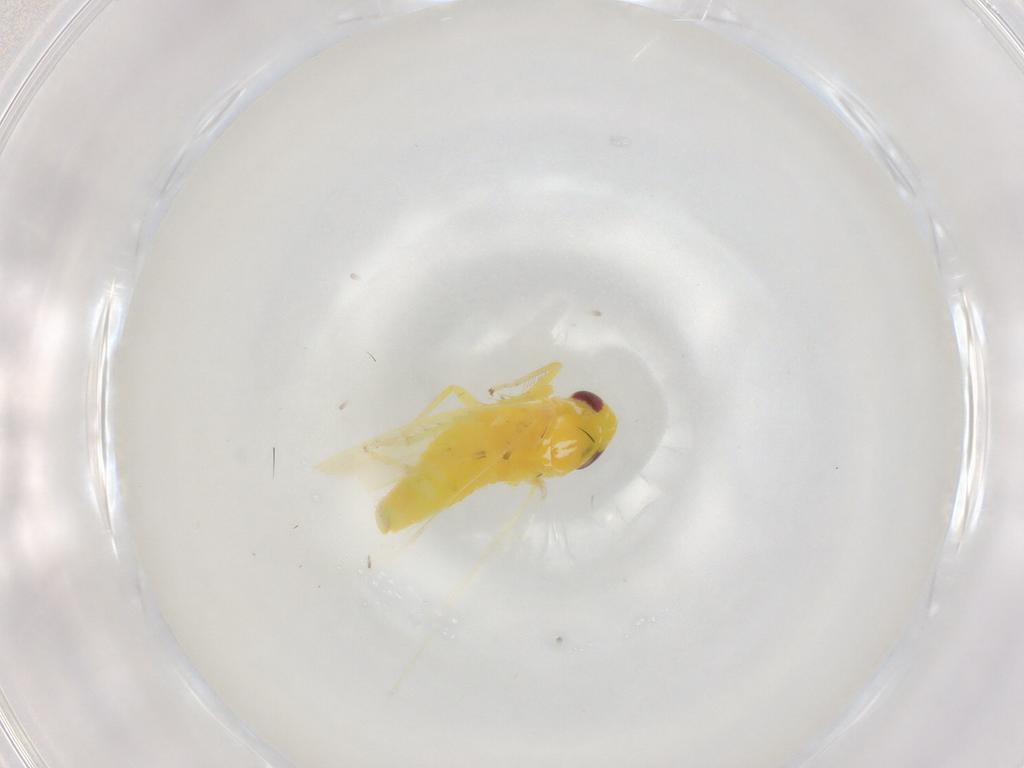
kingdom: Animalia
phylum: Arthropoda
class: Insecta
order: Hemiptera
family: Cicadellidae
